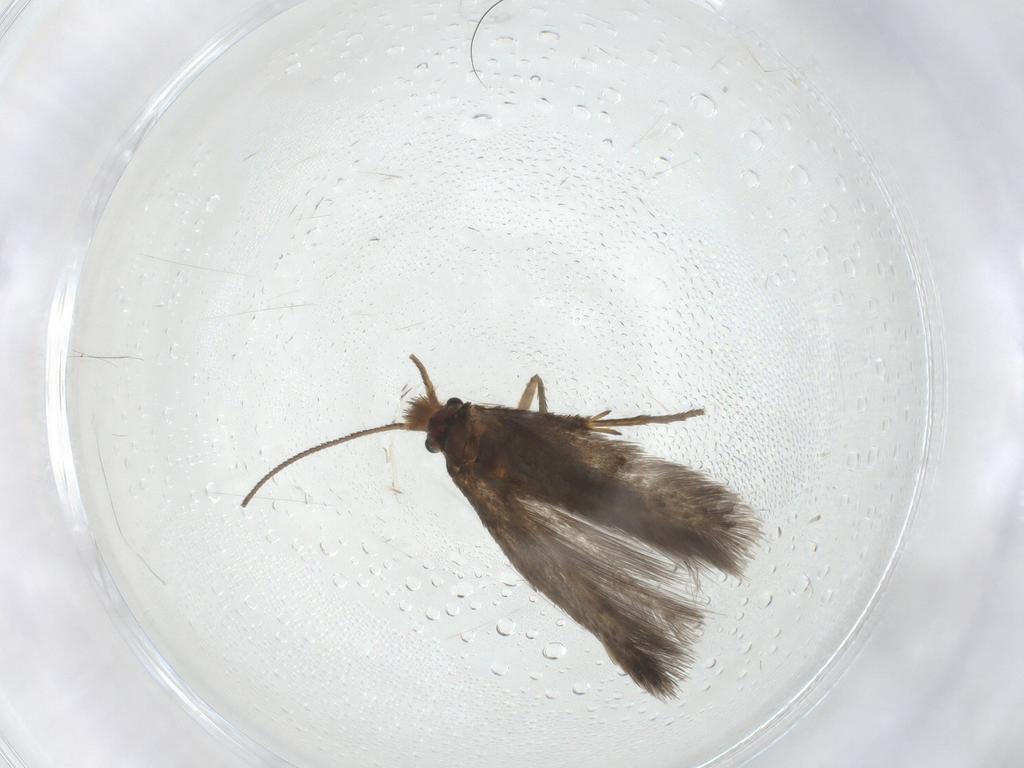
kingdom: Animalia
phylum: Arthropoda
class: Insecta
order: Lepidoptera
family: Nepticulidae
